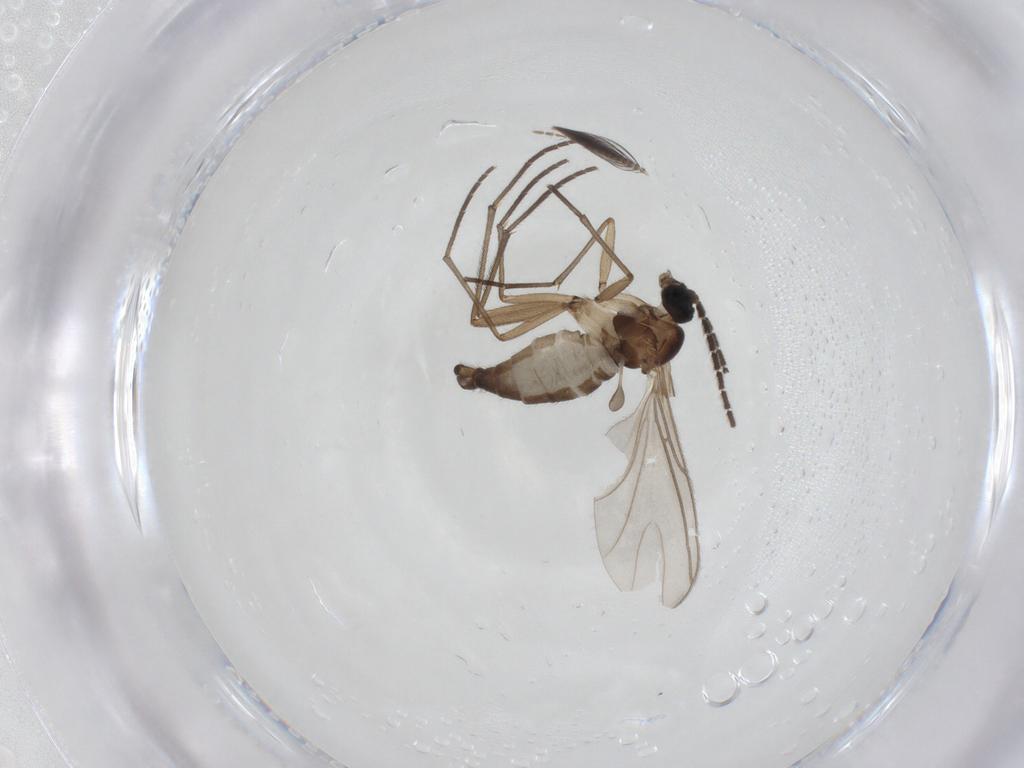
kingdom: Animalia
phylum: Arthropoda
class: Insecta
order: Diptera
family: Sciaridae
